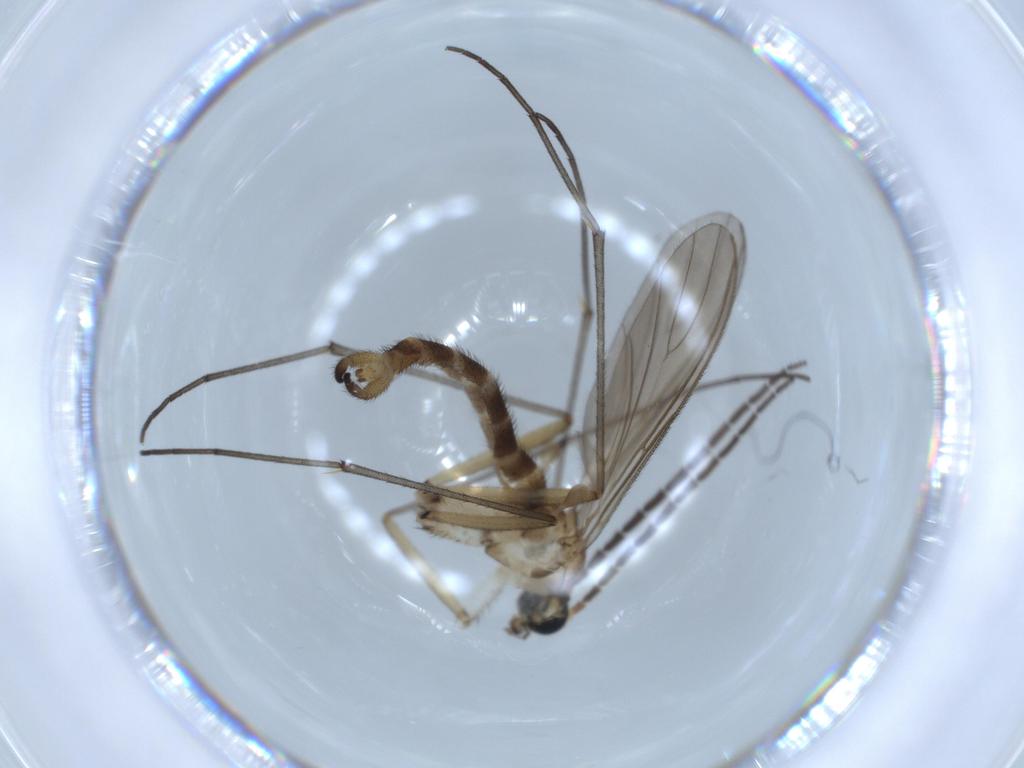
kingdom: Animalia
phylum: Arthropoda
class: Insecta
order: Diptera
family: Sciaridae
